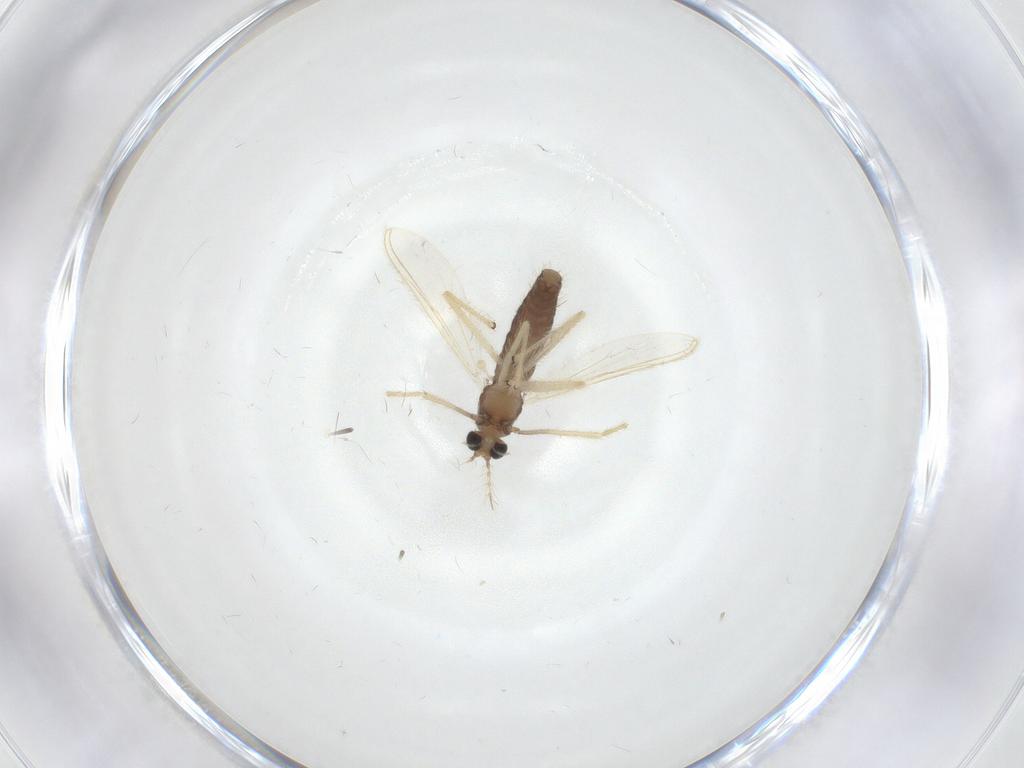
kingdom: Animalia
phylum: Arthropoda
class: Insecta
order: Diptera
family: Chironomidae
